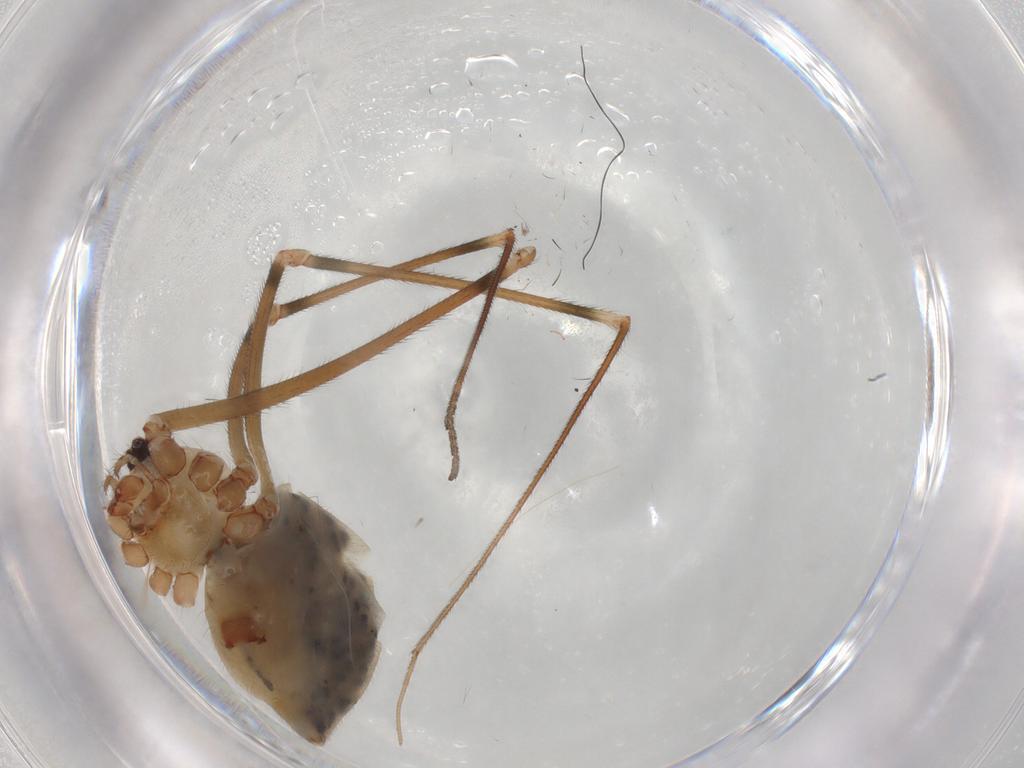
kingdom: Animalia
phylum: Arthropoda
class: Arachnida
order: Araneae
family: Pholcidae
